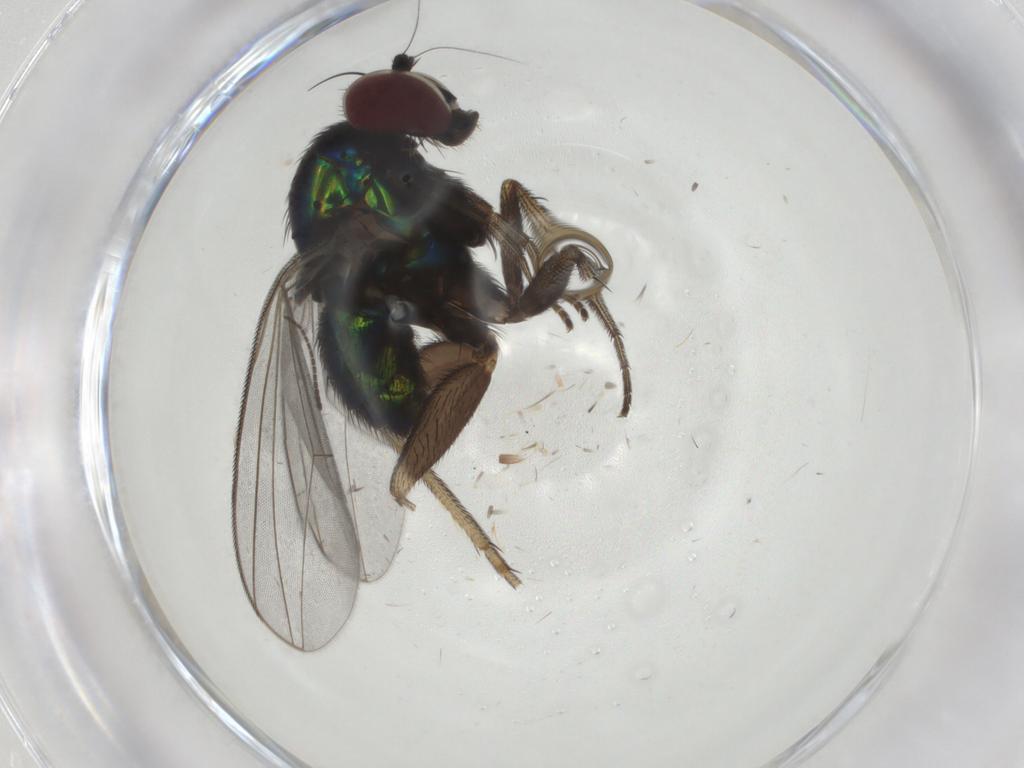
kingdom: Animalia
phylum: Arthropoda
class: Insecta
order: Diptera
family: Dolichopodidae
